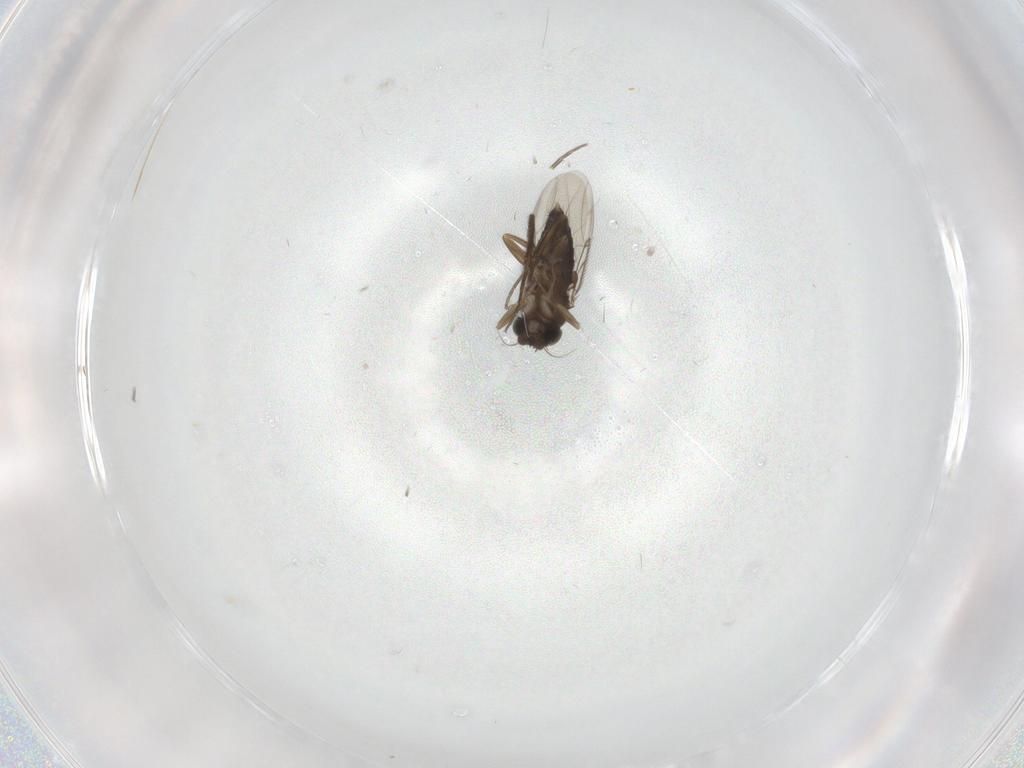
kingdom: Animalia
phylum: Arthropoda
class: Insecta
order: Diptera
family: Phoridae
